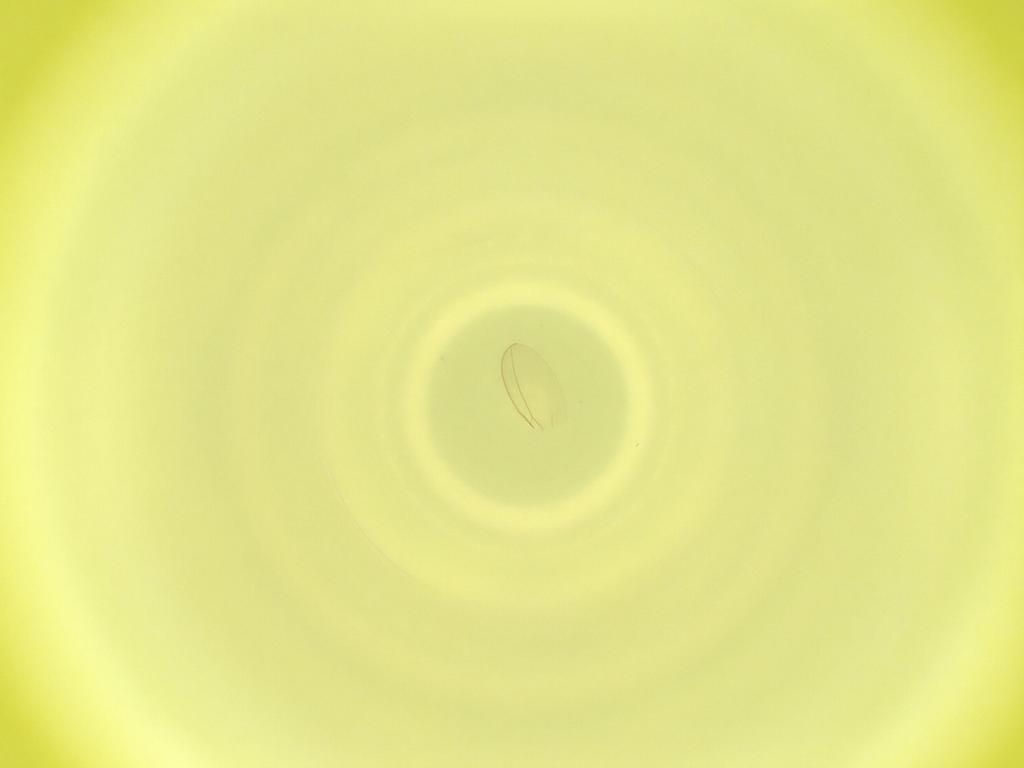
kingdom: Animalia
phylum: Arthropoda
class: Insecta
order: Diptera
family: Cecidomyiidae
